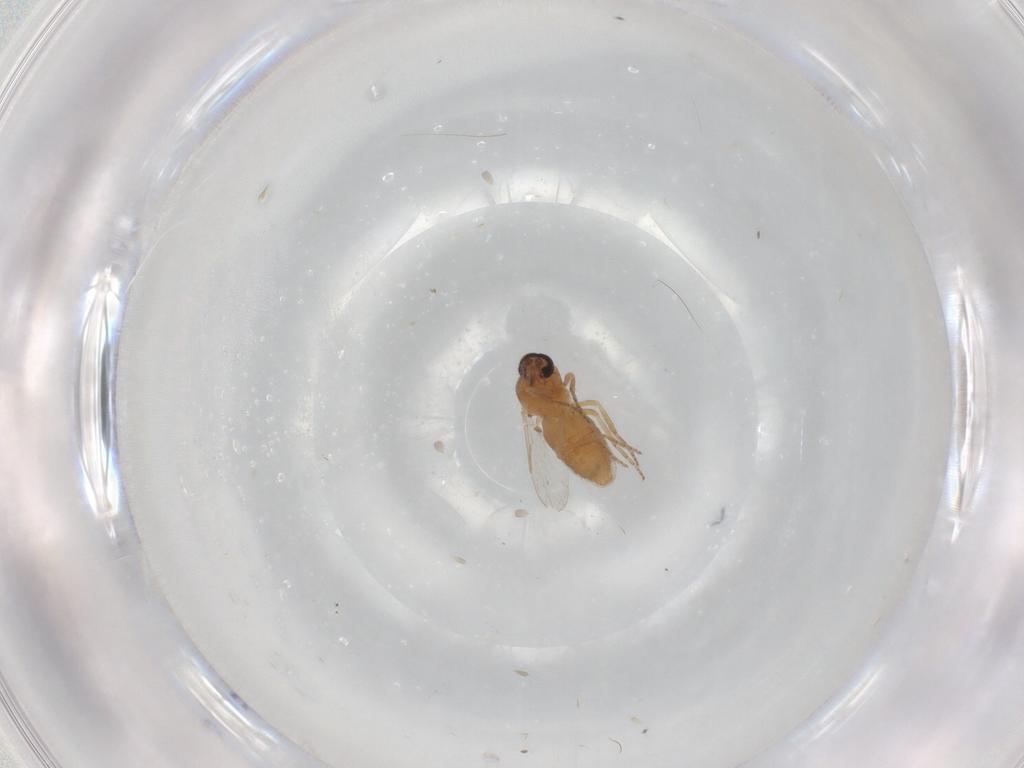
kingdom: Animalia
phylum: Arthropoda
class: Insecta
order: Diptera
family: Ceratopogonidae
